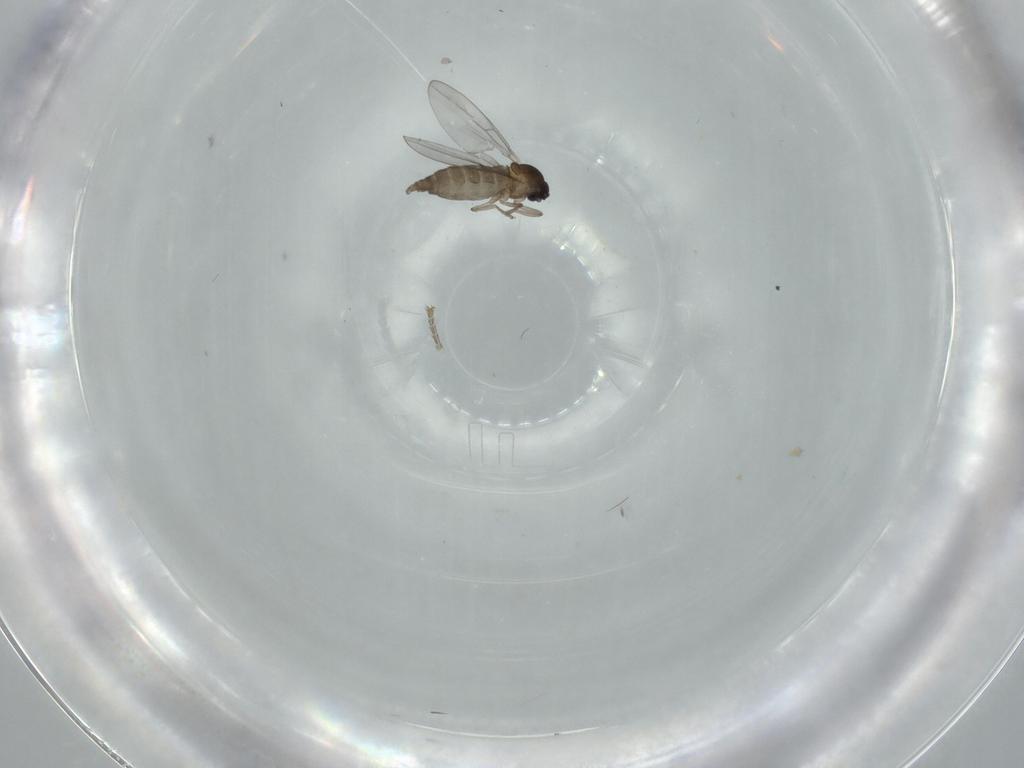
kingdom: Animalia
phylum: Arthropoda
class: Insecta
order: Diptera
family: Cecidomyiidae
